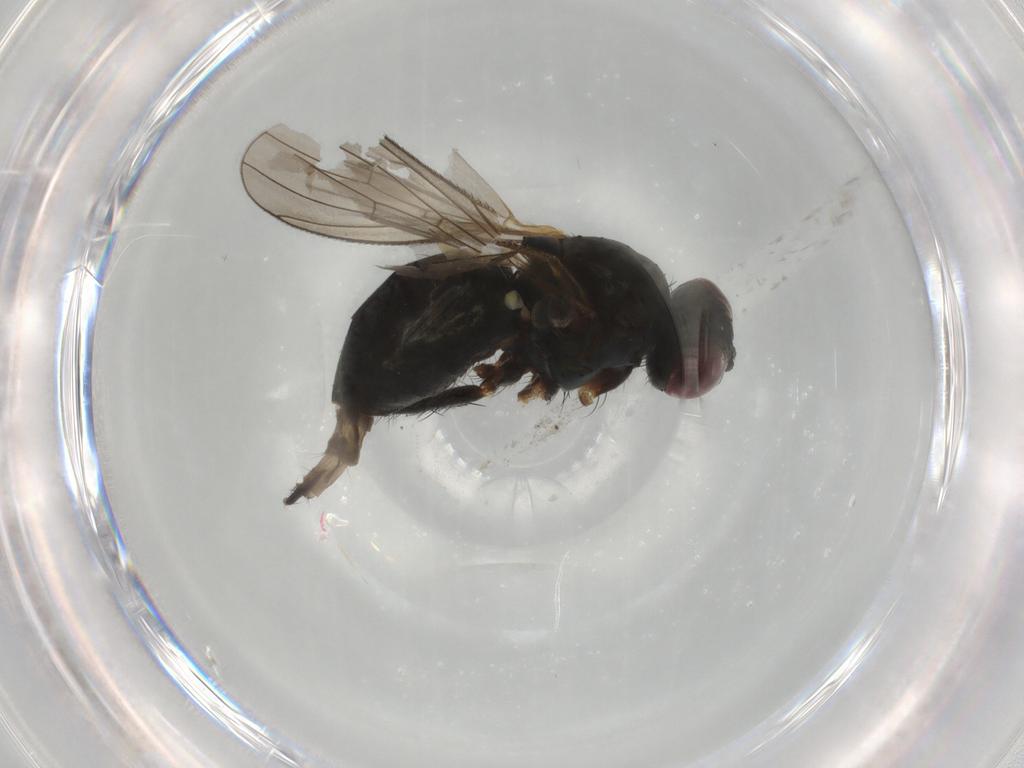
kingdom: Animalia
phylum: Arthropoda
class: Insecta
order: Diptera
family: Muscidae
